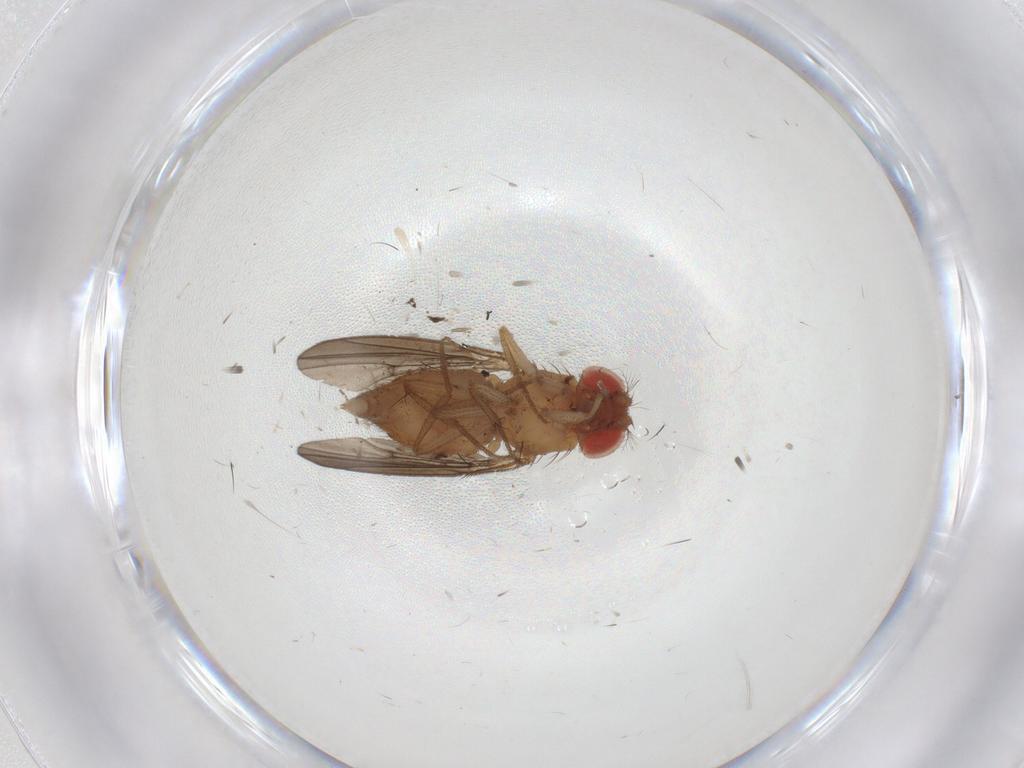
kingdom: Animalia
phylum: Arthropoda
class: Insecta
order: Diptera
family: Drosophilidae
